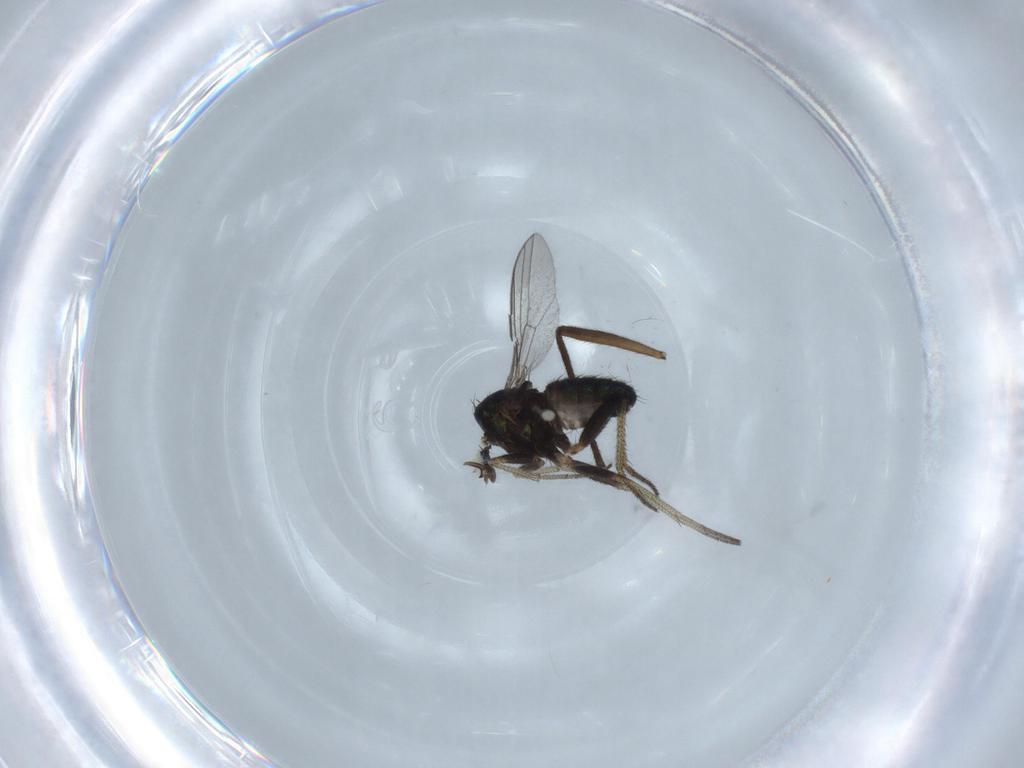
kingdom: Animalia
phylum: Arthropoda
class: Insecta
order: Diptera
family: Sciaridae
